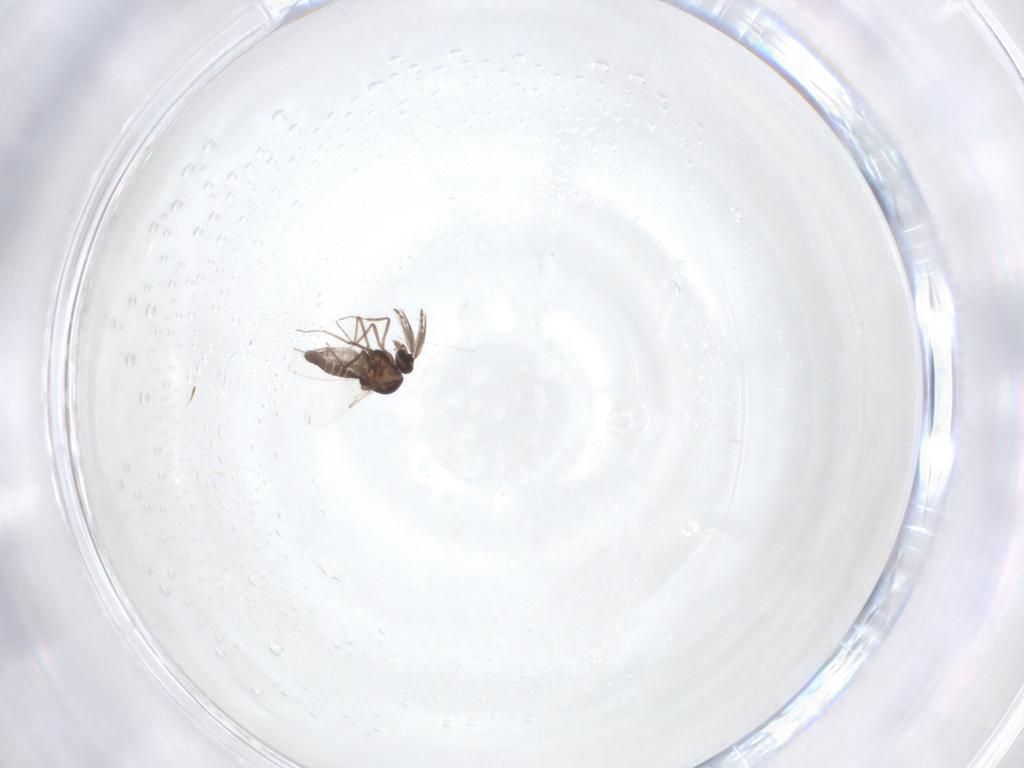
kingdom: Animalia
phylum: Arthropoda
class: Insecta
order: Diptera
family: Ceratopogonidae
